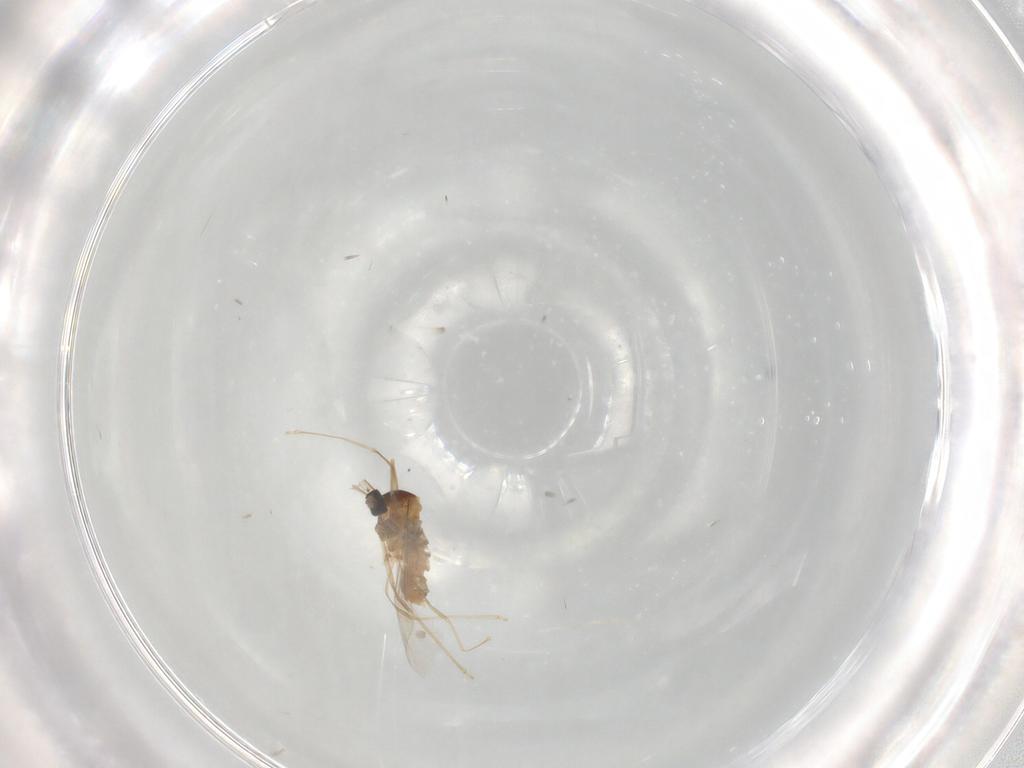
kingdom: Animalia
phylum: Arthropoda
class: Insecta
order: Diptera
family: Cecidomyiidae
